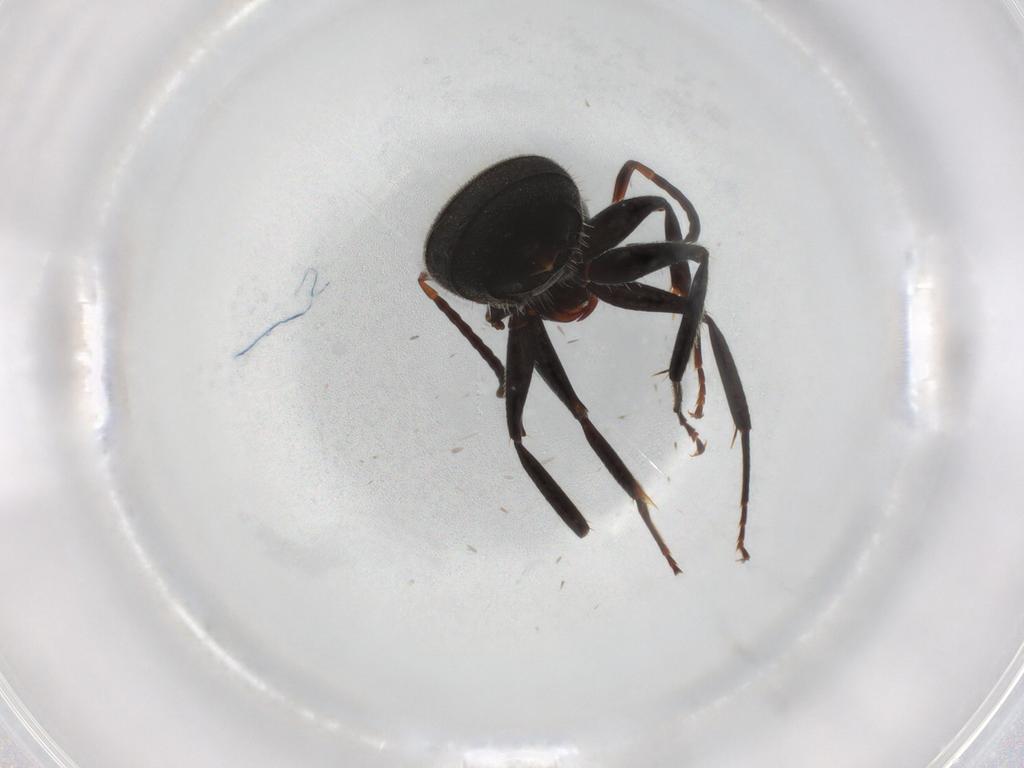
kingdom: Animalia
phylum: Arthropoda
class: Insecta
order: Hymenoptera
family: Formicidae
